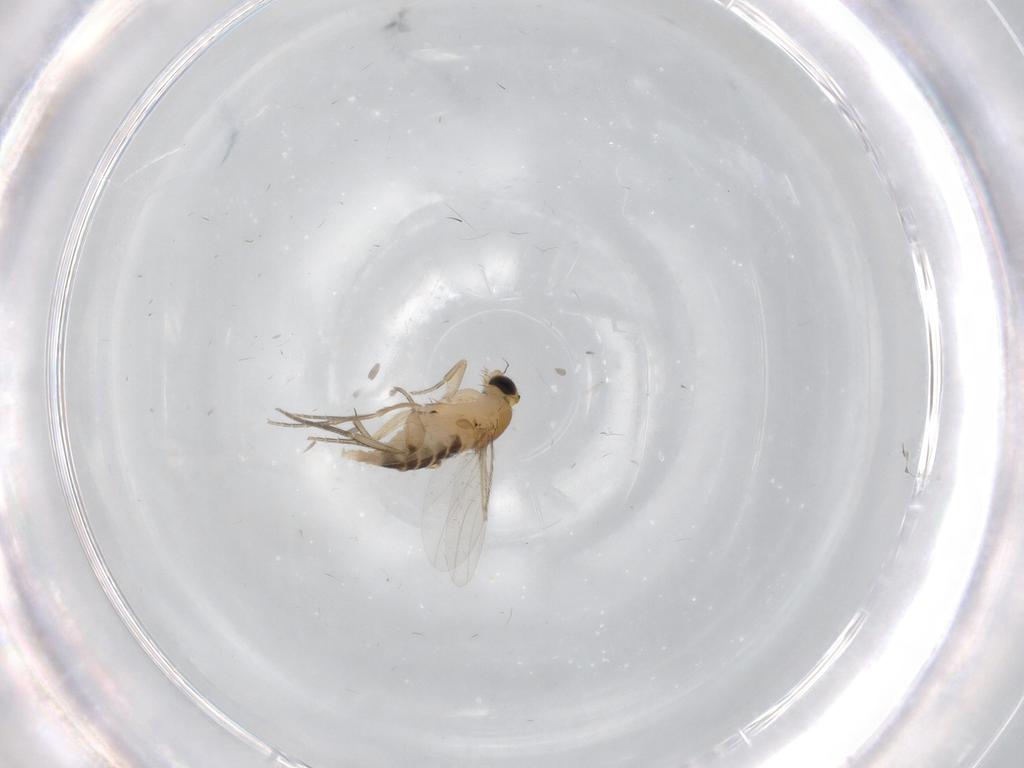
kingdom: Animalia
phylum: Arthropoda
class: Insecta
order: Diptera
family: Phoridae
